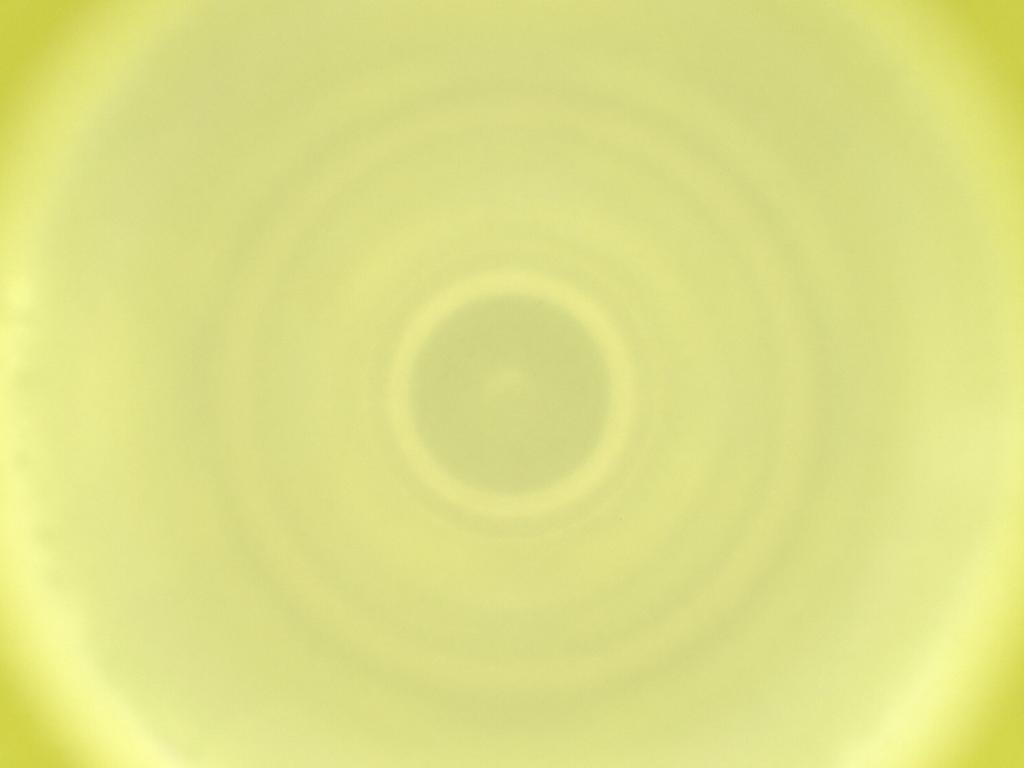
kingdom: Animalia
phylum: Arthropoda
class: Insecta
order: Diptera
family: Cecidomyiidae
